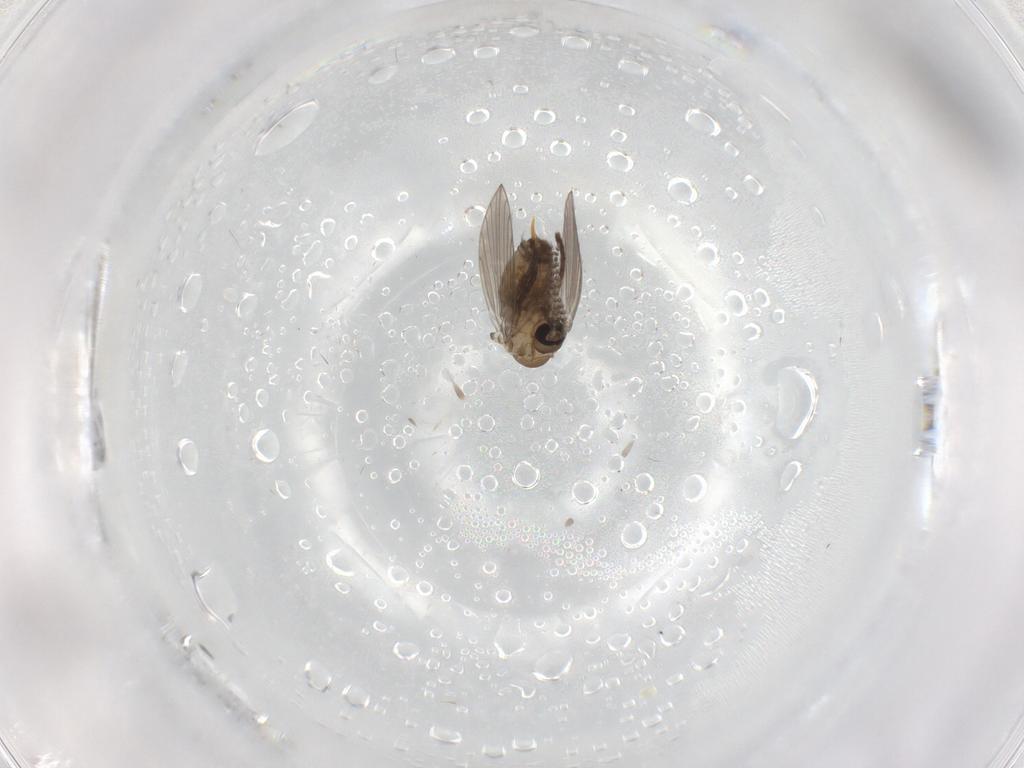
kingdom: Animalia
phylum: Arthropoda
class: Insecta
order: Diptera
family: Psychodidae
